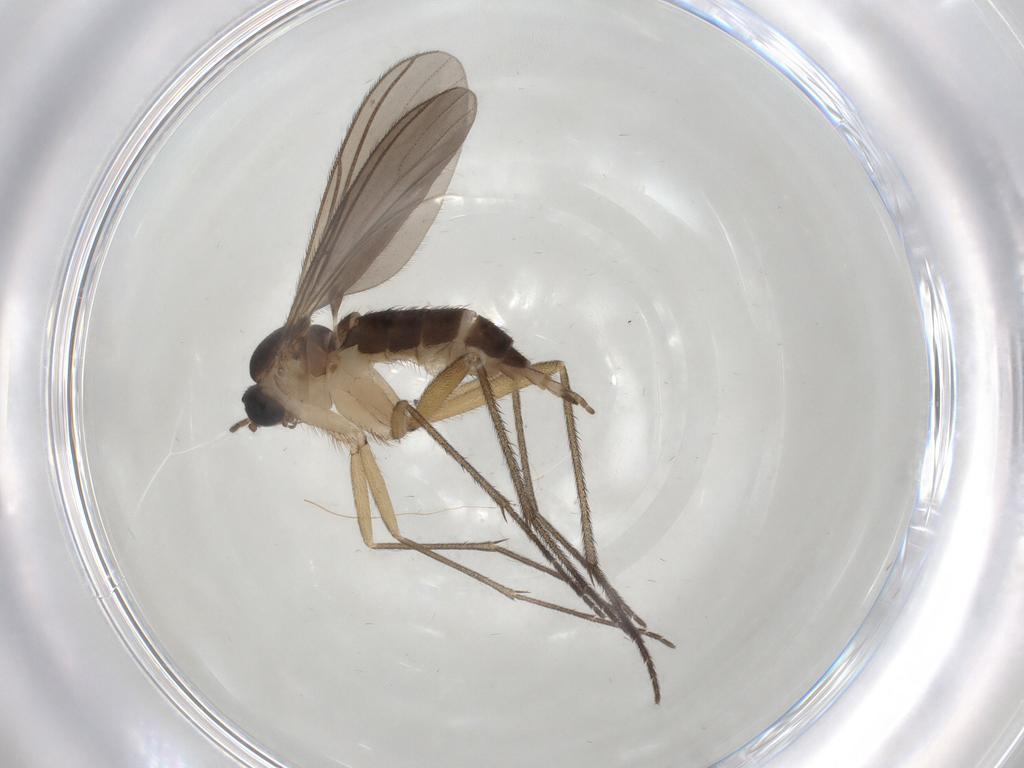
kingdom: Animalia
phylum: Arthropoda
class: Insecta
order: Diptera
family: Sciaridae
